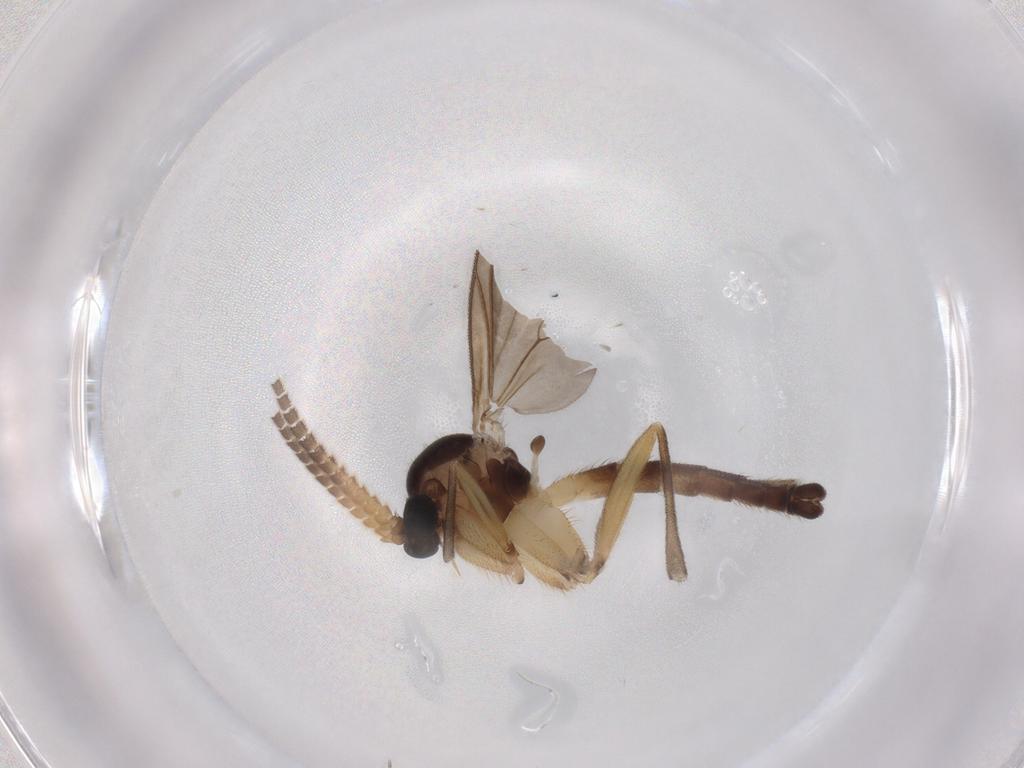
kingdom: Animalia
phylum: Arthropoda
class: Insecta
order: Diptera
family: Mycetophilidae
